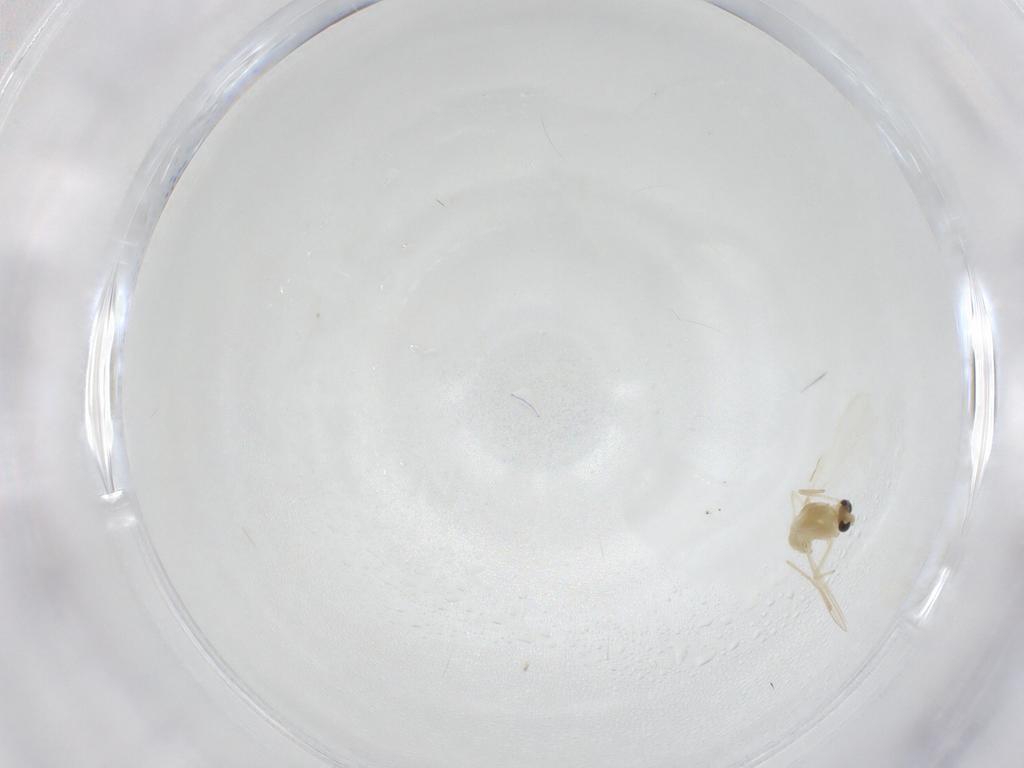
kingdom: Animalia
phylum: Arthropoda
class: Insecta
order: Diptera
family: Chironomidae
